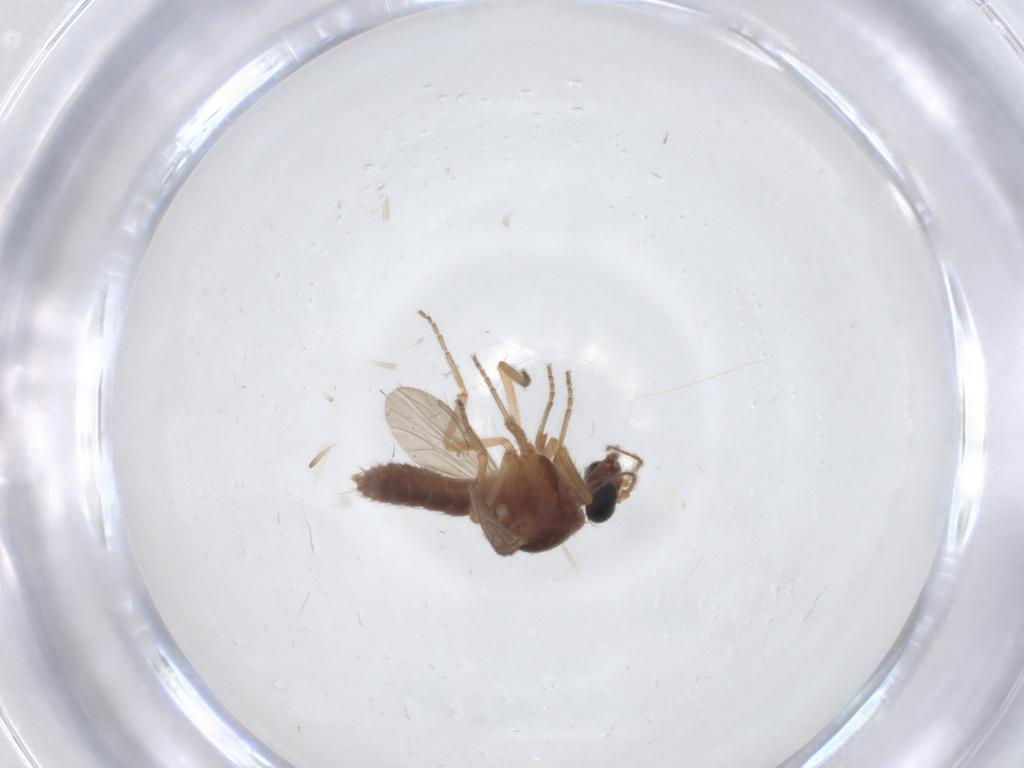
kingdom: Animalia
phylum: Arthropoda
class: Insecta
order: Diptera
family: Ceratopogonidae
